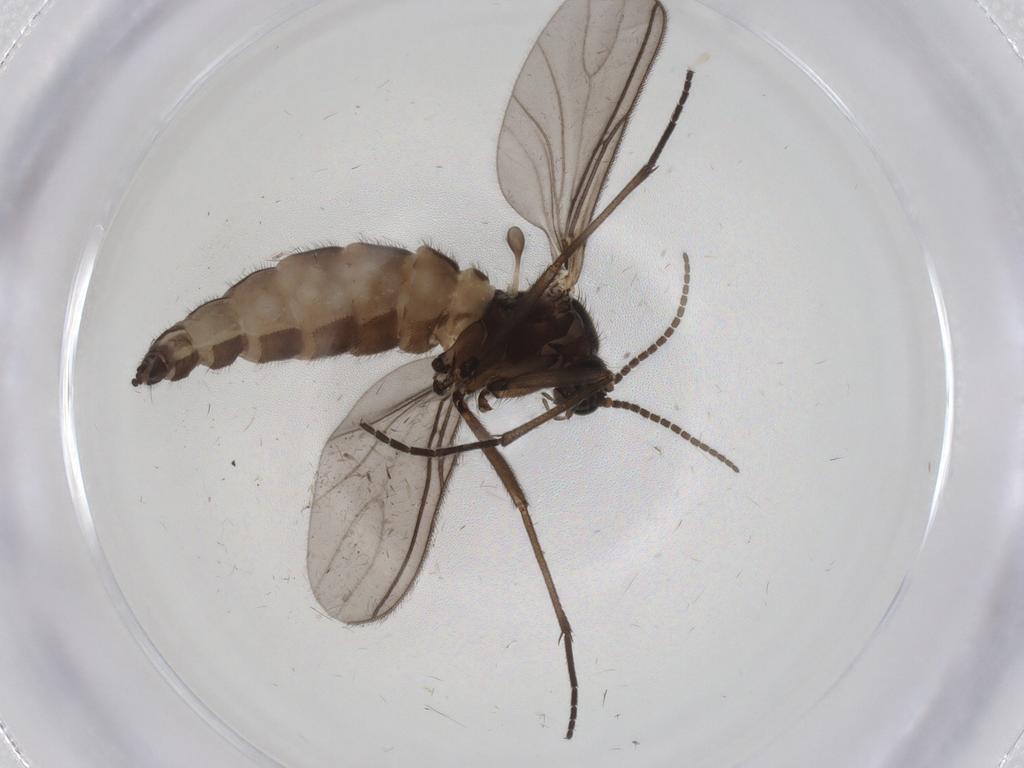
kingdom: Animalia
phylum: Arthropoda
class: Insecta
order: Diptera
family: Sciaridae
